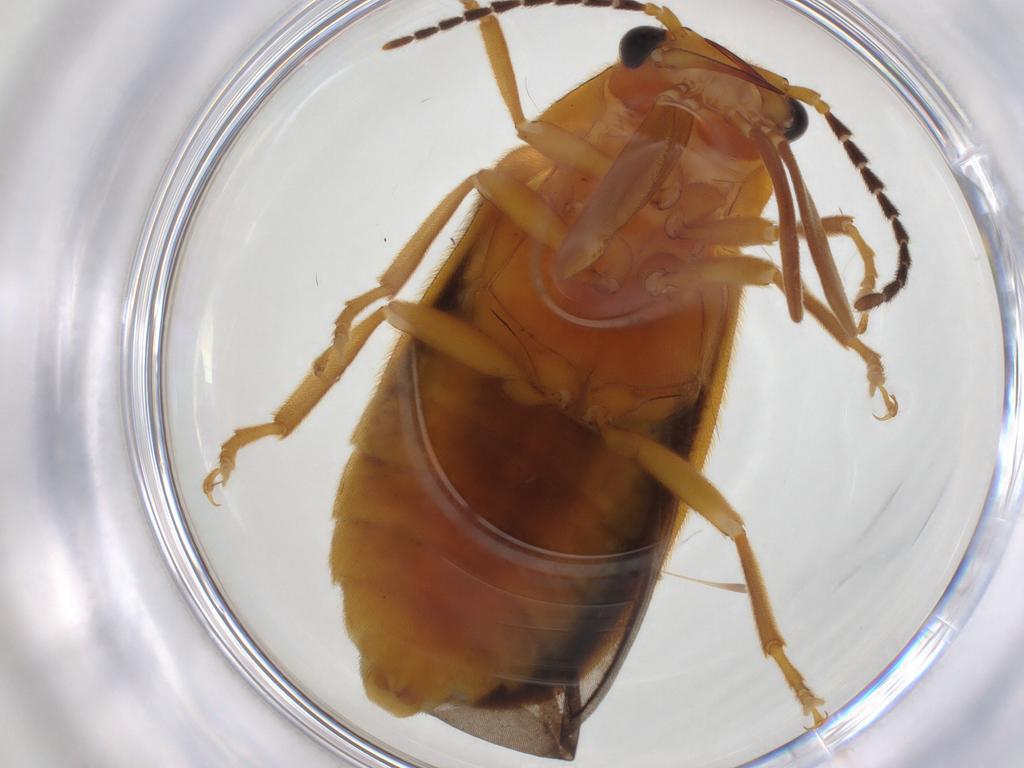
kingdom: Animalia
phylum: Arthropoda
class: Insecta
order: Coleoptera
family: Lampyridae
